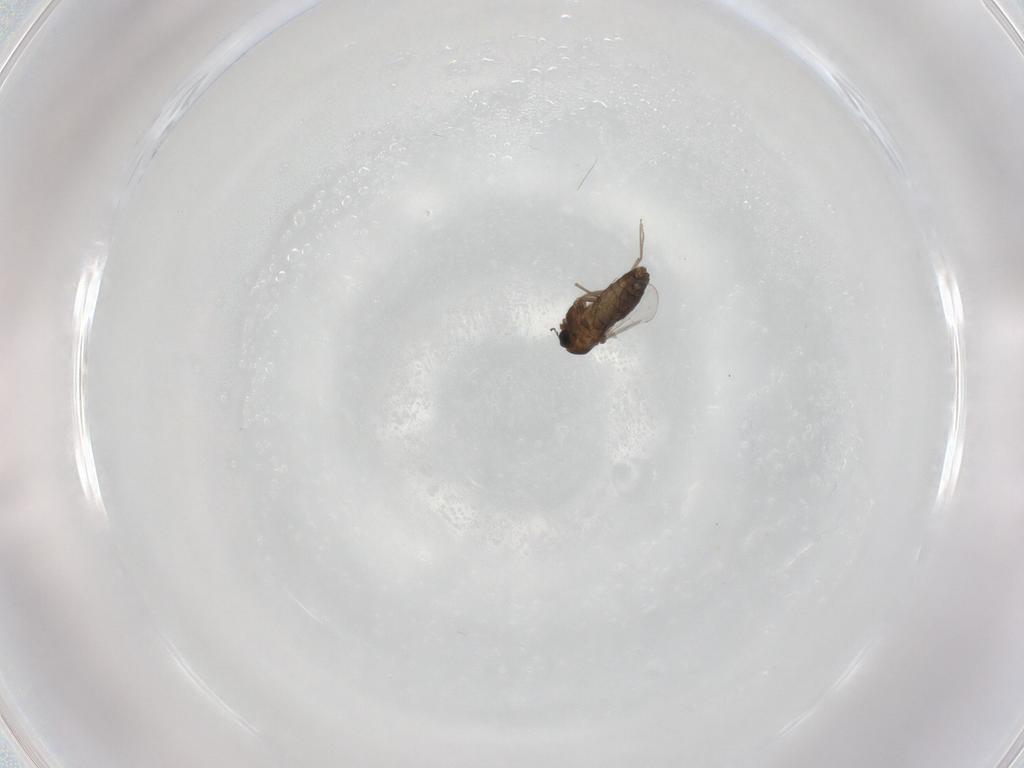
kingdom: Animalia
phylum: Arthropoda
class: Insecta
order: Diptera
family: Chironomidae
